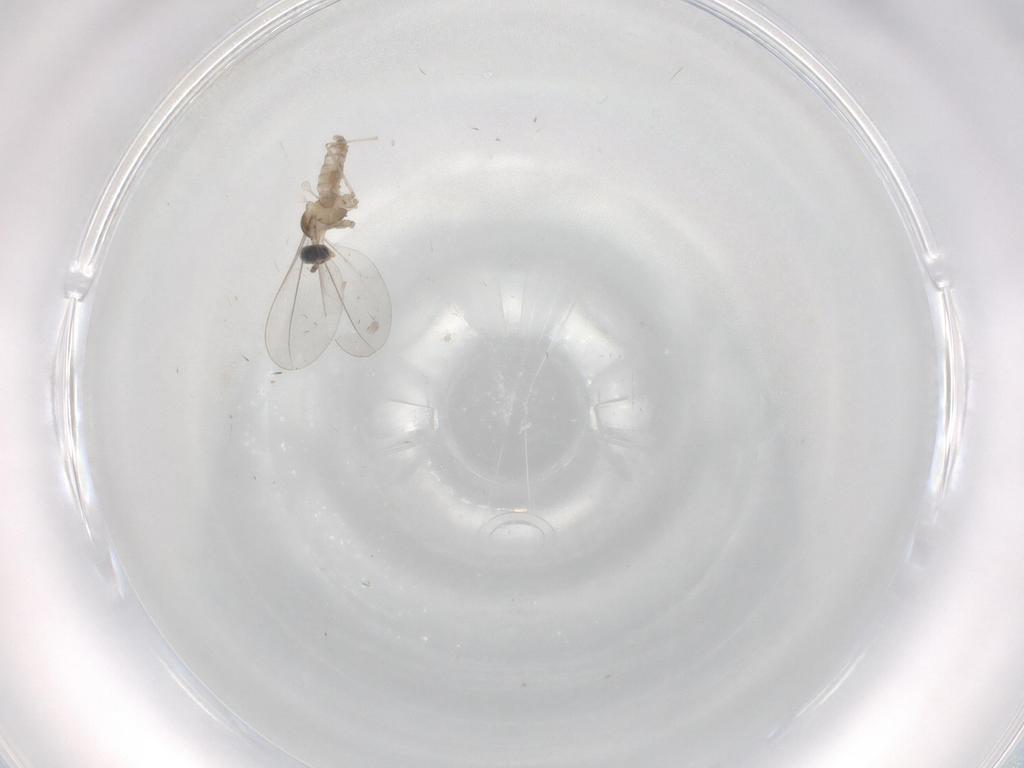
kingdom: Animalia
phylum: Arthropoda
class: Insecta
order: Diptera
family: Cecidomyiidae
